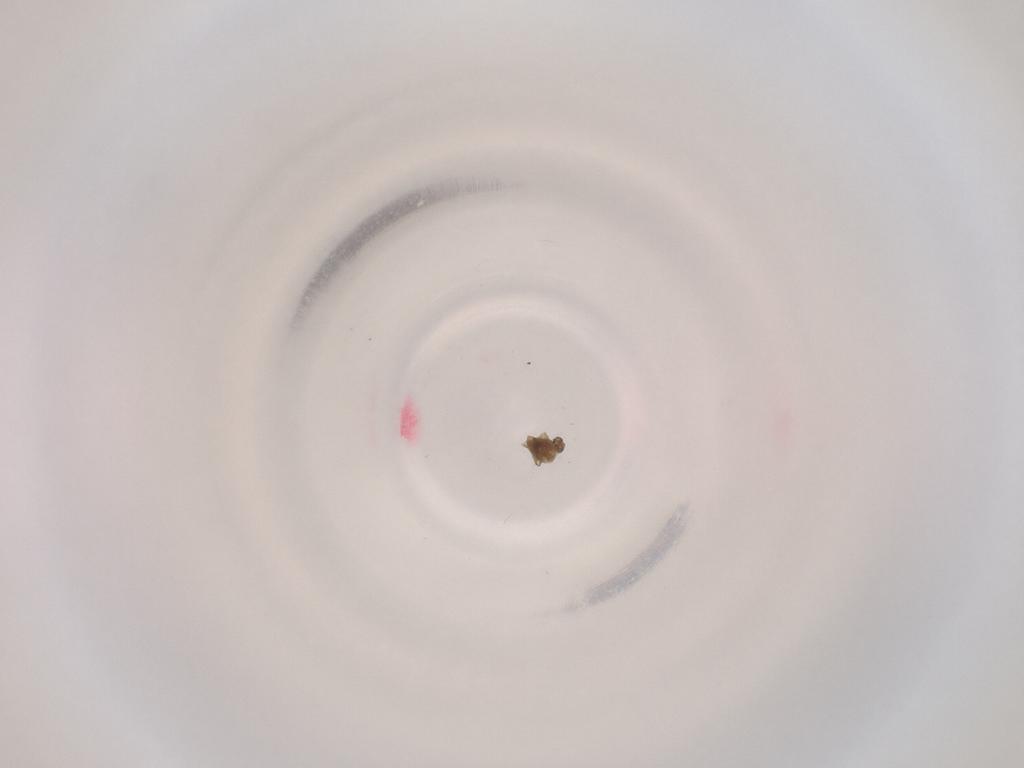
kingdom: Animalia
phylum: Arthropoda
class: Insecta
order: Diptera
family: Cecidomyiidae
